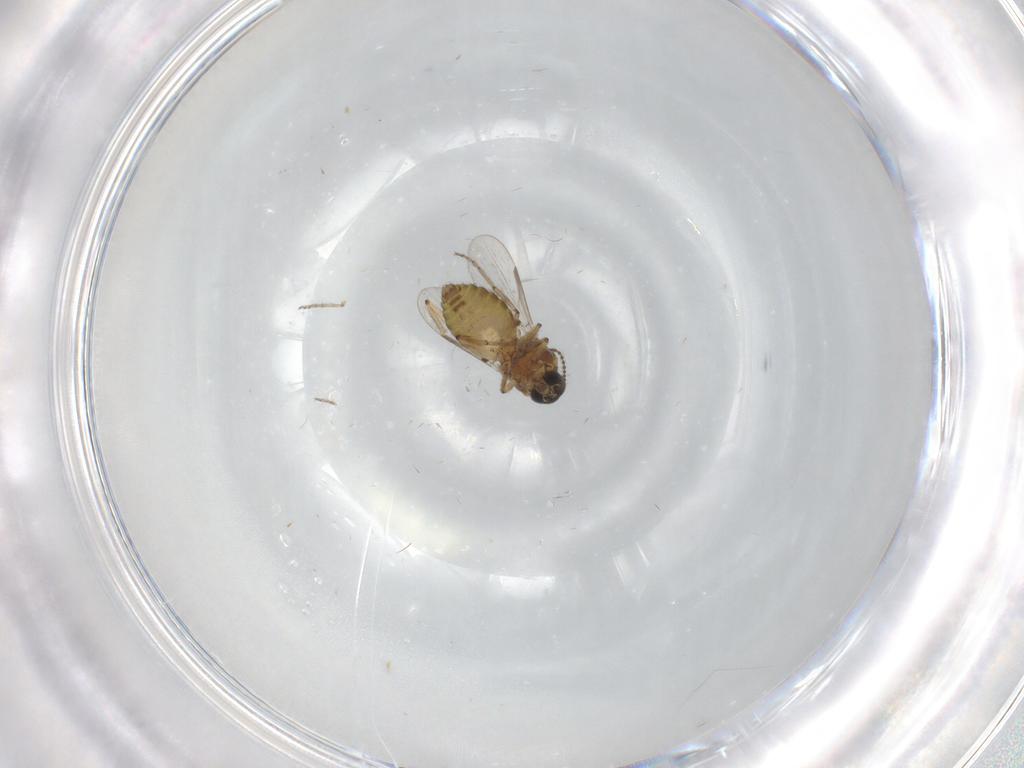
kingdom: Animalia
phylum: Arthropoda
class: Insecta
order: Diptera
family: Ceratopogonidae
